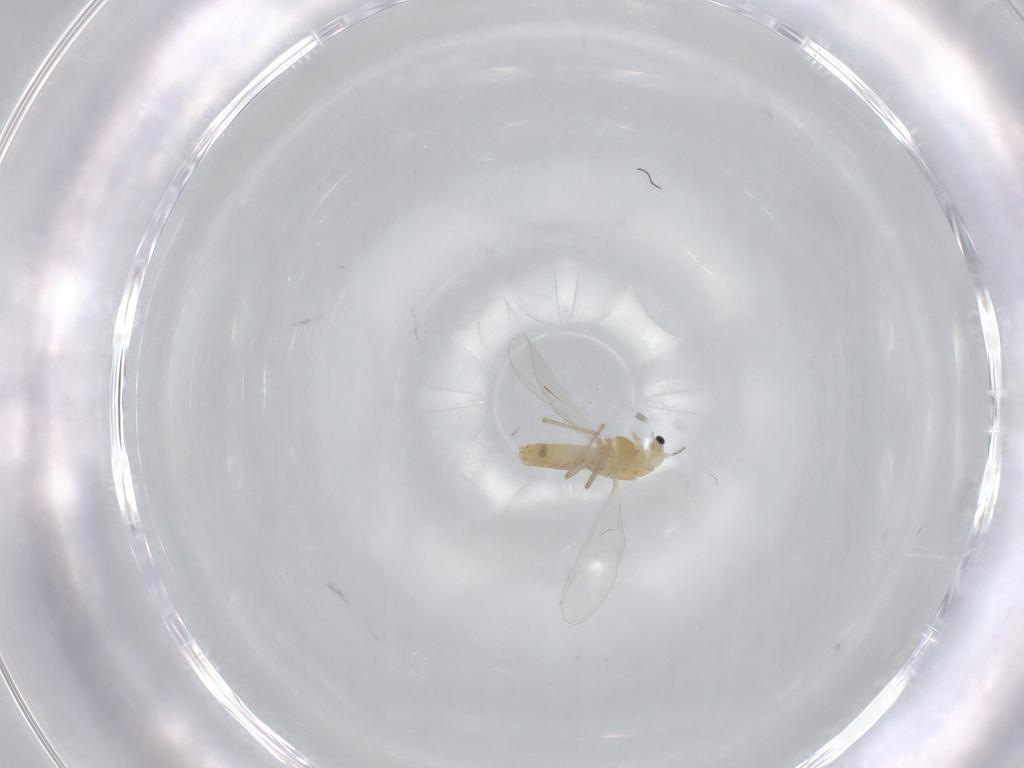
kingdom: Animalia
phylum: Arthropoda
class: Insecta
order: Diptera
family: Chironomidae
